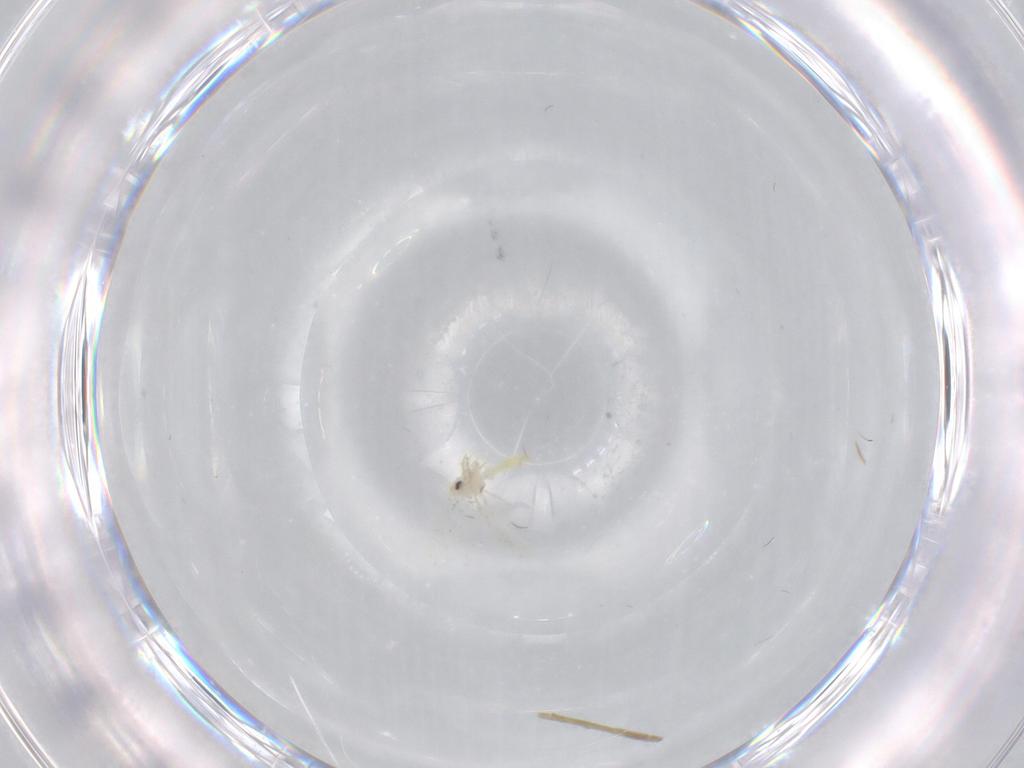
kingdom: Animalia
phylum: Arthropoda
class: Insecta
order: Hemiptera
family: Aleyrodidae
